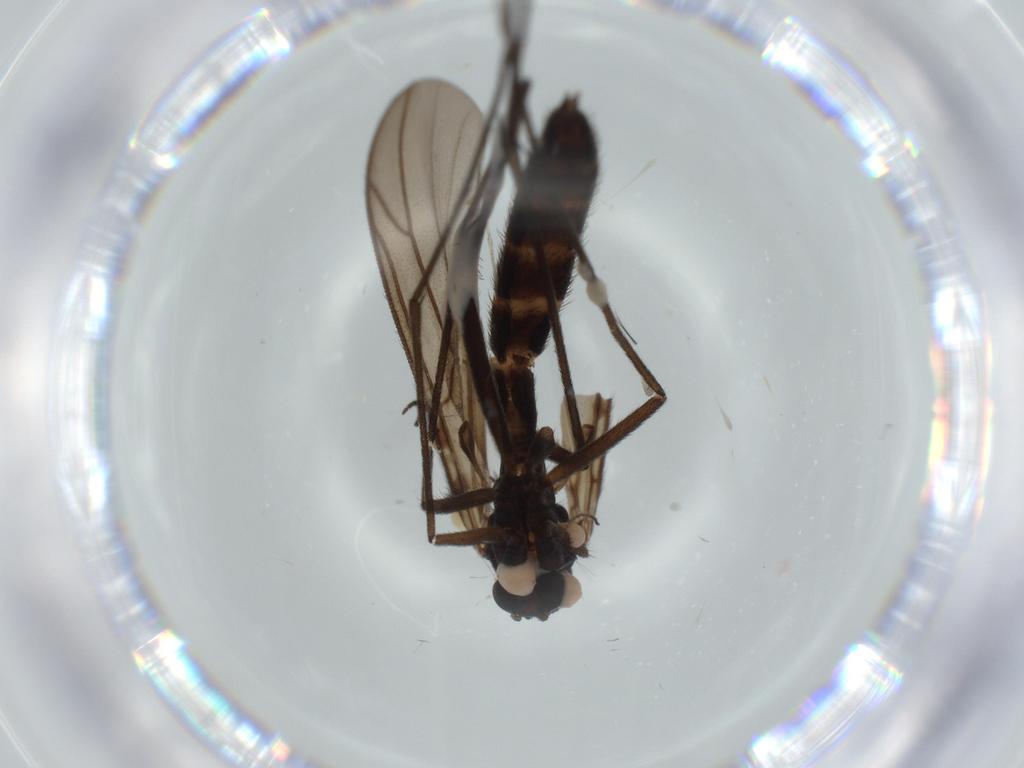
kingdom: Animalia
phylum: Arthropoda
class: Insecta
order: Diptera
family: Ditomyiidae
